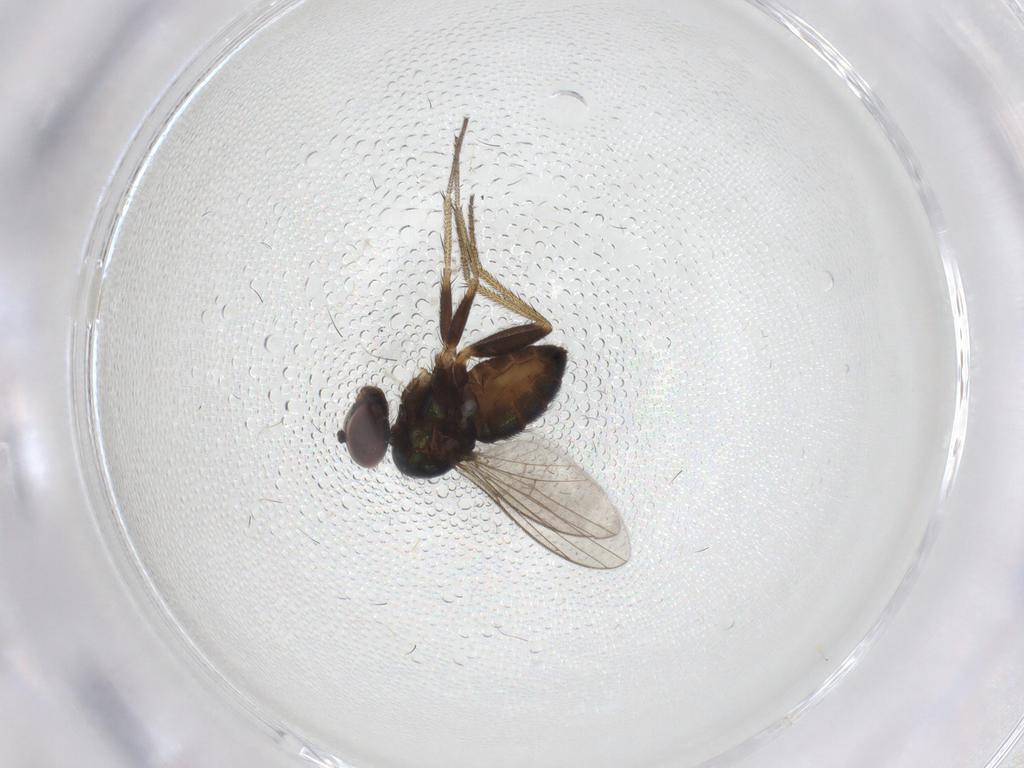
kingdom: Animalia
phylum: Arthropoda
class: Insecta
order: Diptera
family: Dolichopodidae
